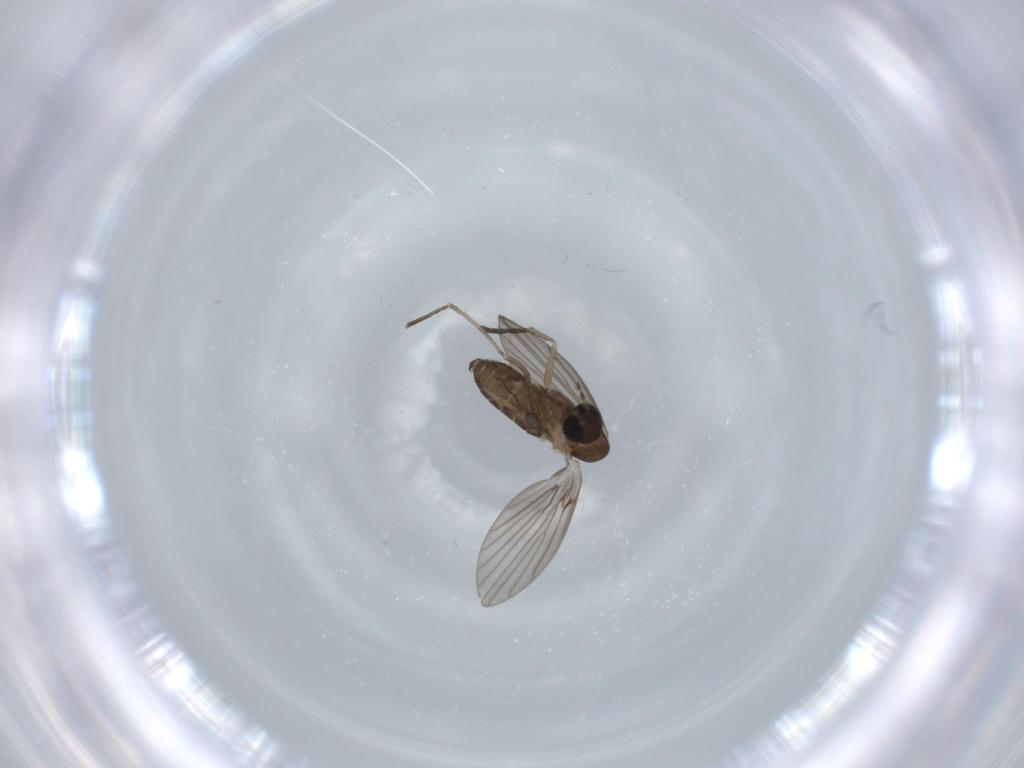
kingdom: Animalia
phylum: Arthropoda
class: Insecta
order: Diptera
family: Psychodidae
